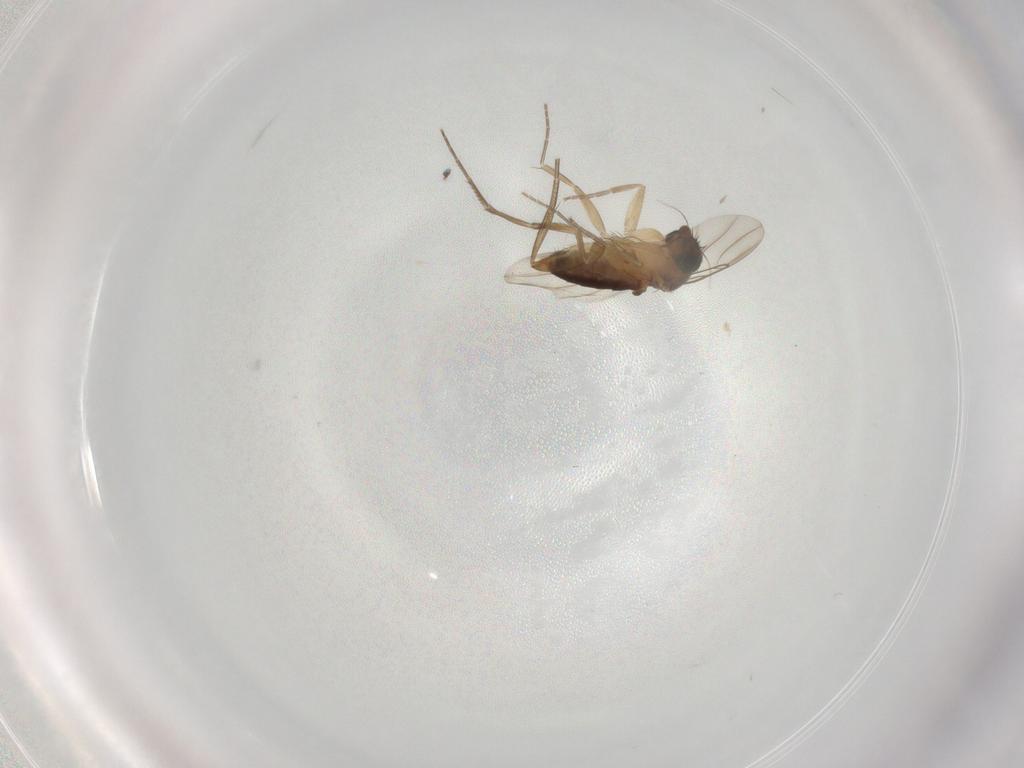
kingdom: Animalia
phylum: Arthropoda
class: Insecta
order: Diptera
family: Phoridae
